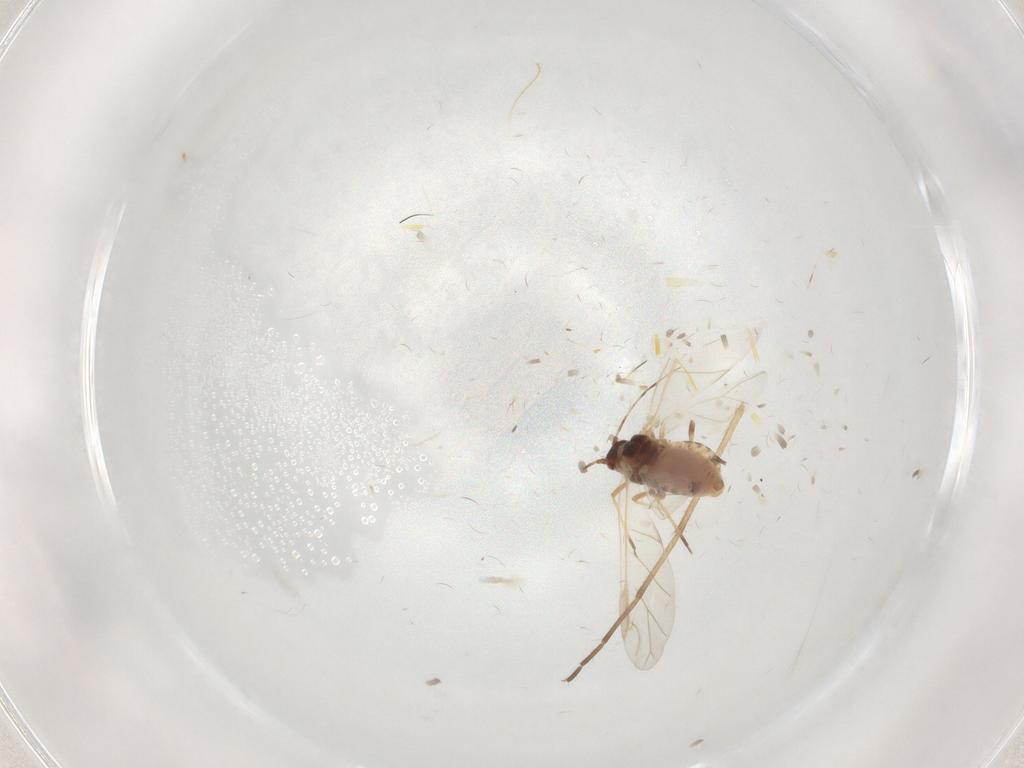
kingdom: Animalia
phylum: Arthropoda
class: Insecta
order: Hemiptera
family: Aphididae
